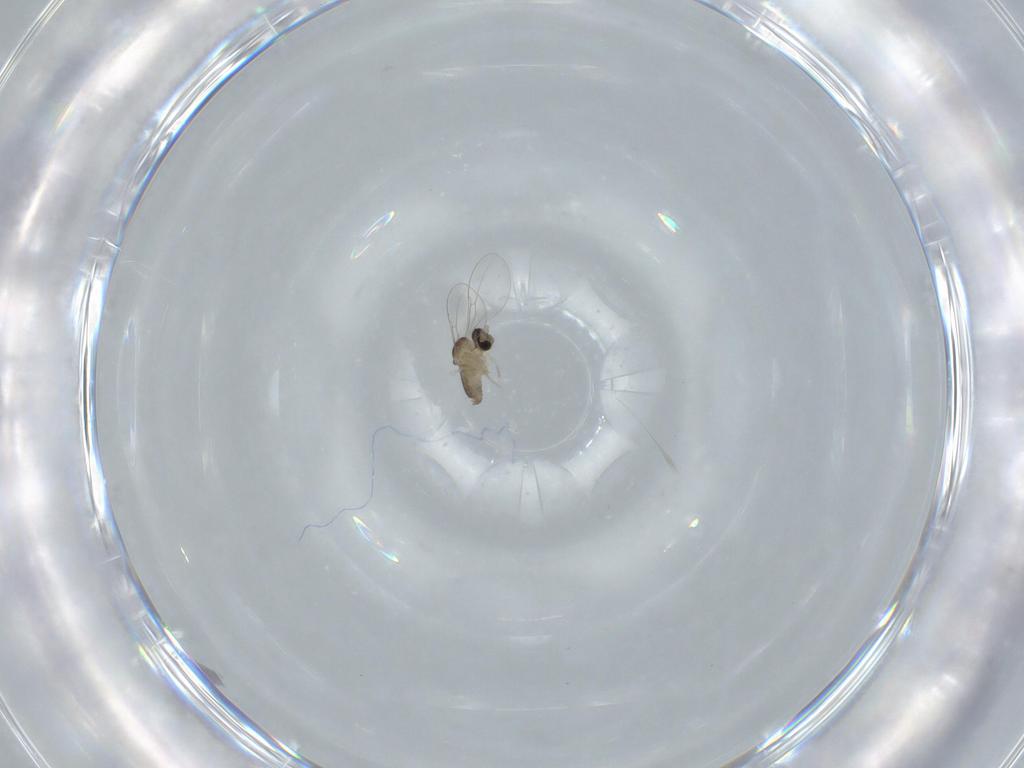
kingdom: Animalia
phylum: Arthropoda
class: Insecta
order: Diptera
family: Cecidomyiidae
